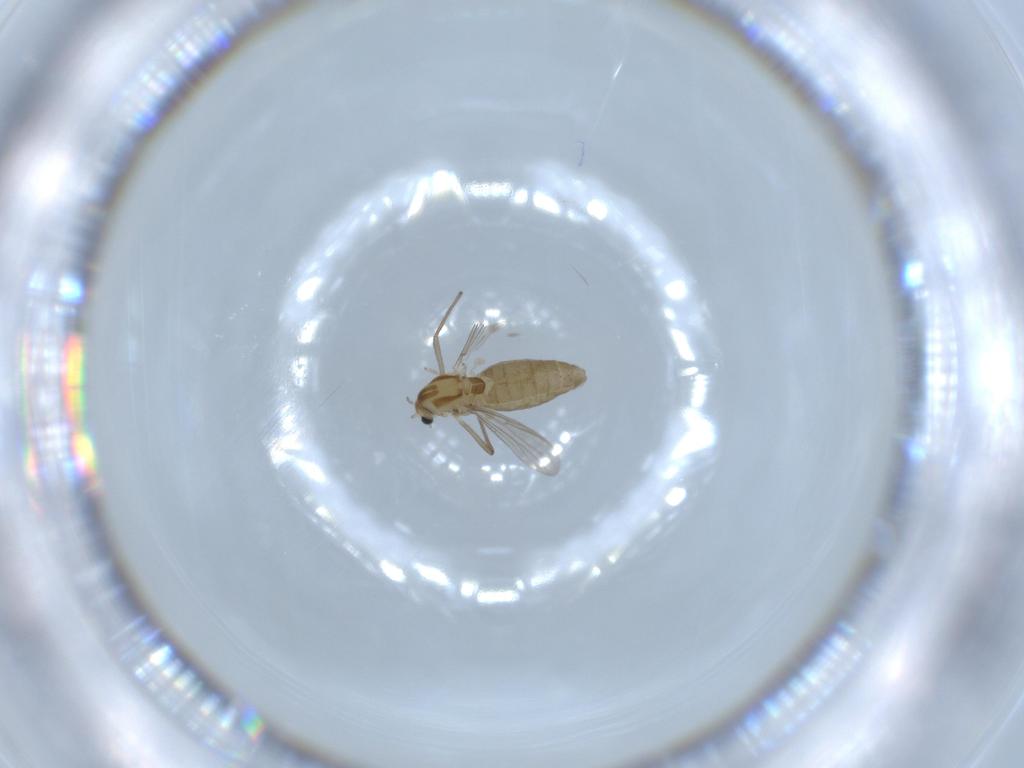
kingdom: Animalia
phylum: Arthropoda
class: Insecta
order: Diptera
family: Chironomidae
